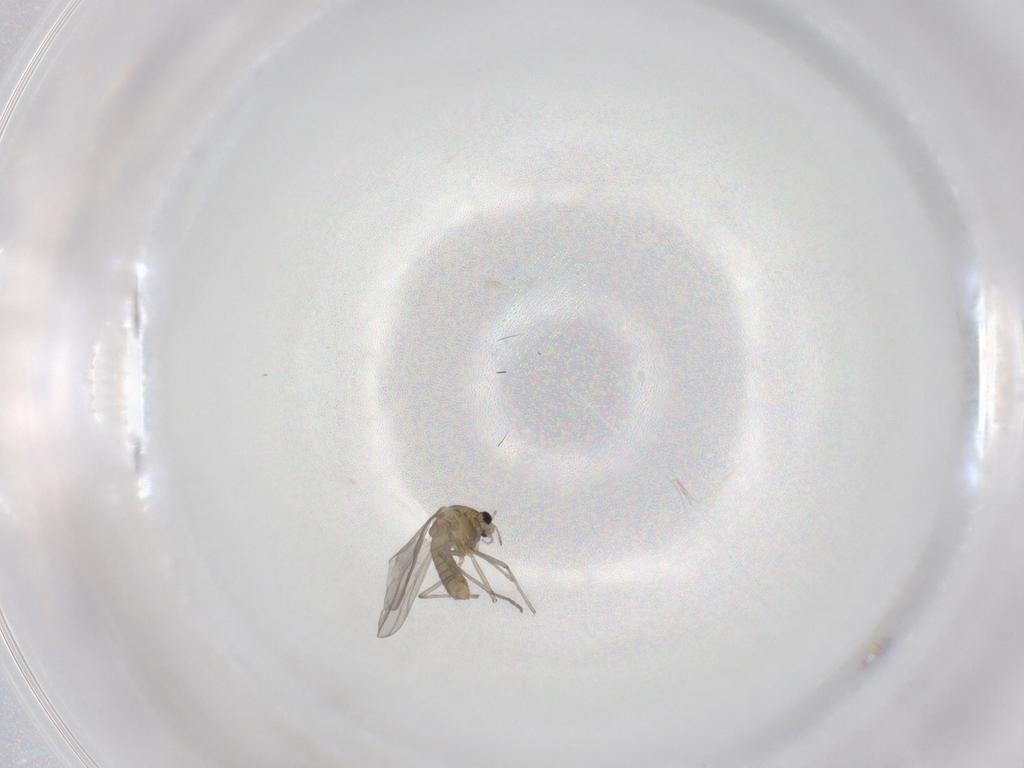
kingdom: Animalia
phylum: Arthropoda
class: Insecta
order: Diptera
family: Chironomidae
